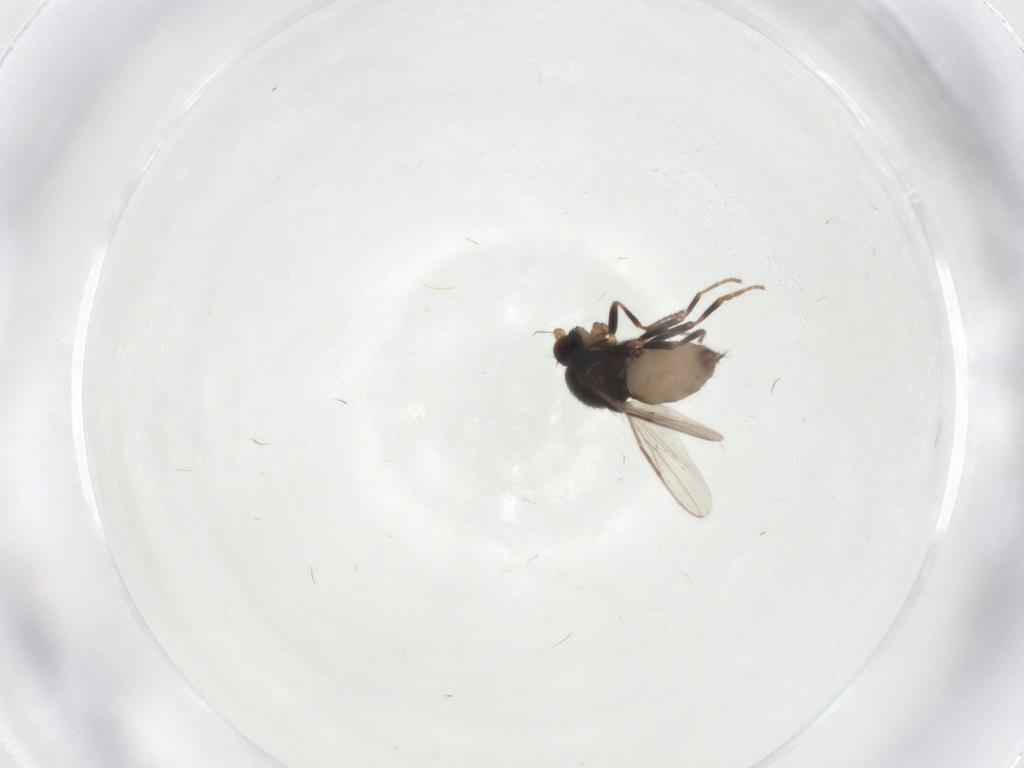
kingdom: Animalia
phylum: Arthropoda
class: Insecta
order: Diptera
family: Sphaeroceridae
